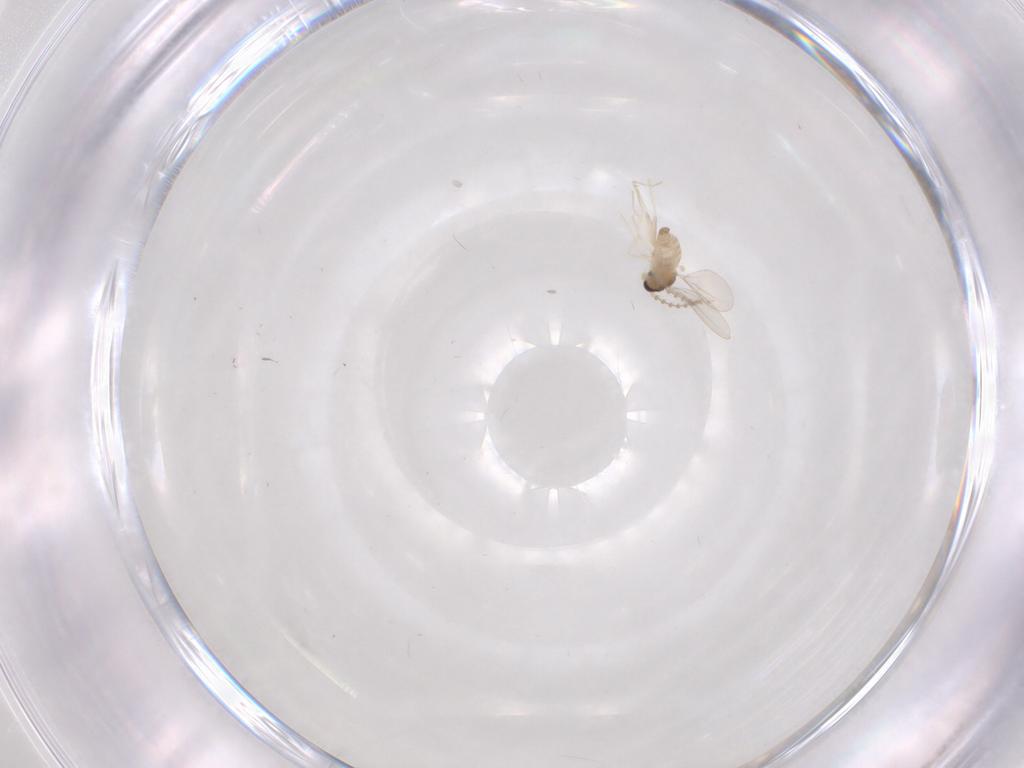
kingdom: Animalia
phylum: Arthropoda
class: Insecta
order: Diptera
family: Cecidomyiidae
